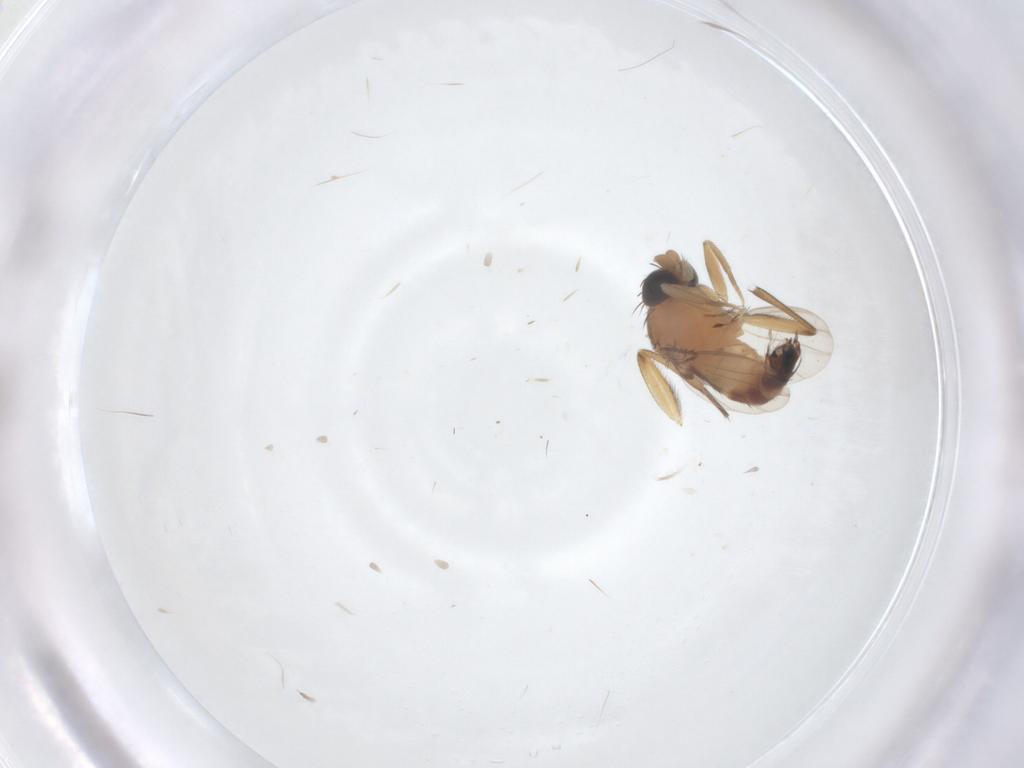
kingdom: Animalia
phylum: Arthropoda
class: Insecta
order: Diptera
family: Phoridae
